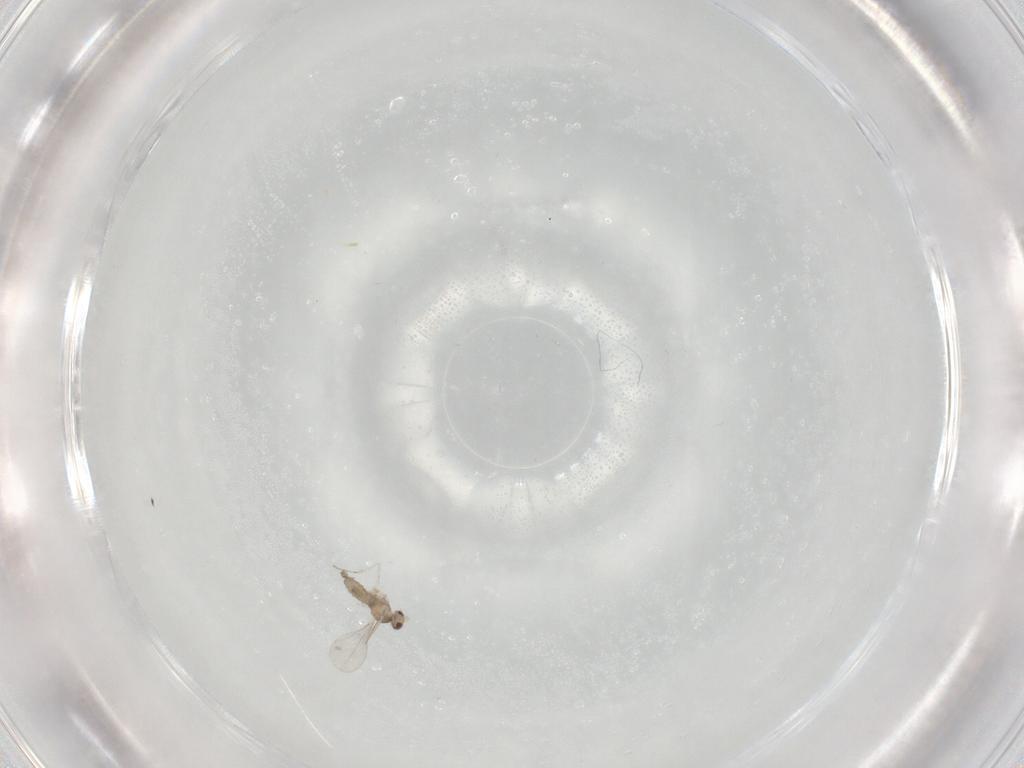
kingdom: Animalia
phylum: Arthropoda
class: Insecta
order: Diptera
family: Cecidomyiidae
